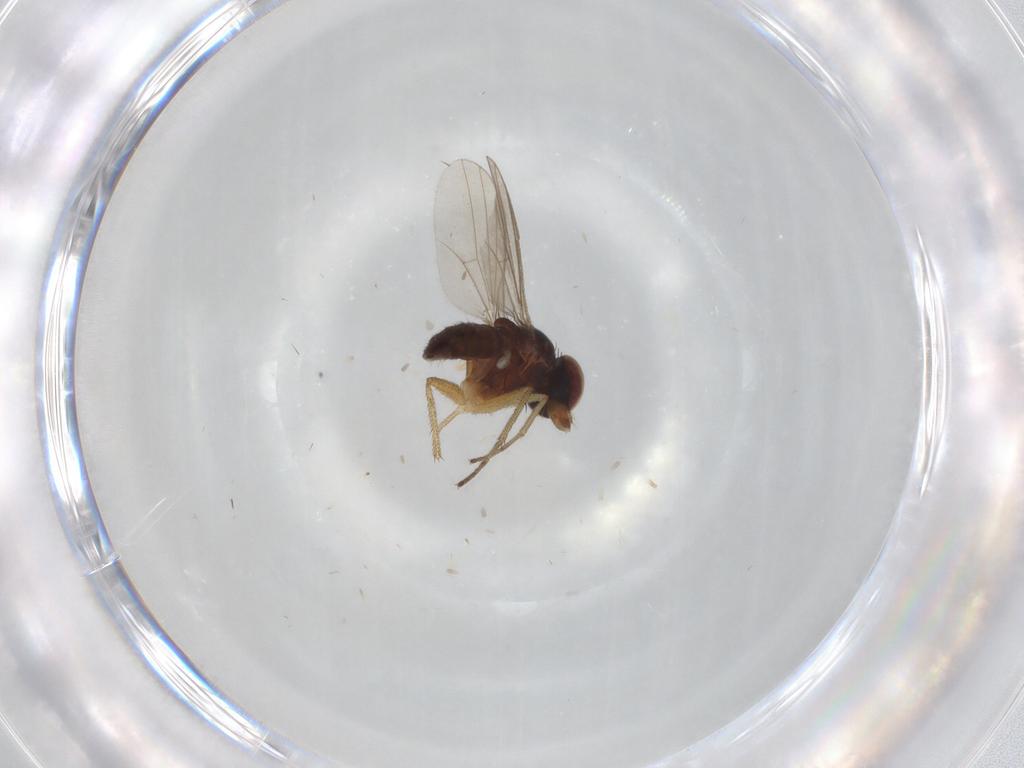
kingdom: Animalia
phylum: Arthropoda
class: Insecta
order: Diptera
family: Dolichopodidae
